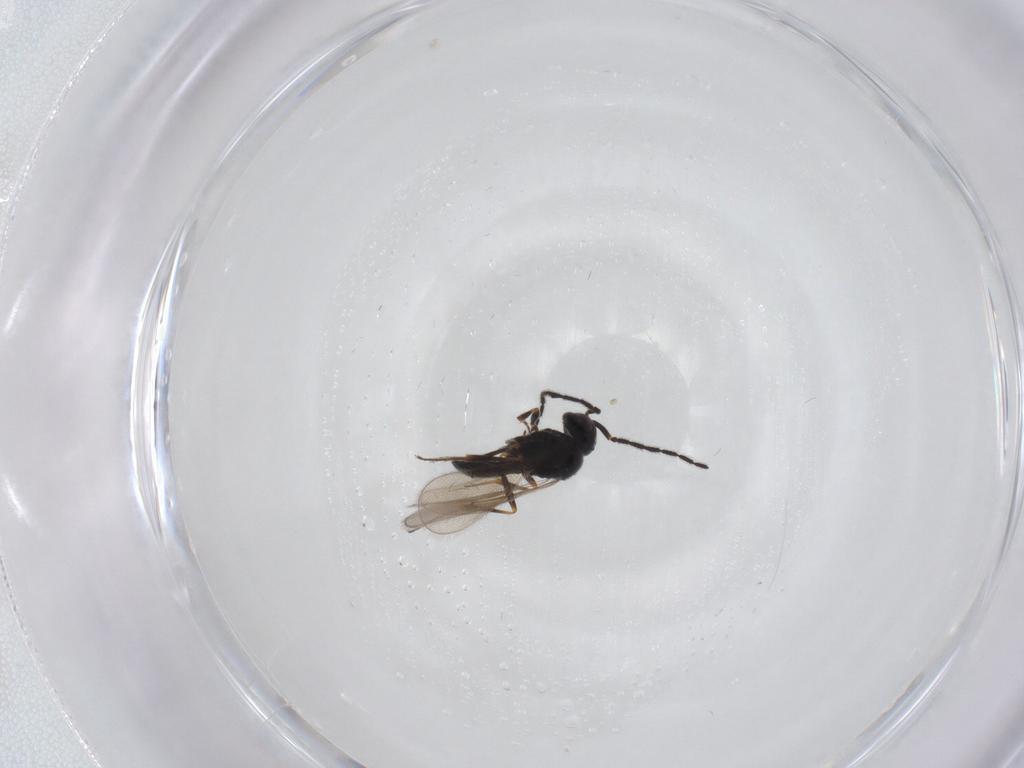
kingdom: Animalia
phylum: Arthropoda
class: Insecta
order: Hymenoptera
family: Scelionidae
